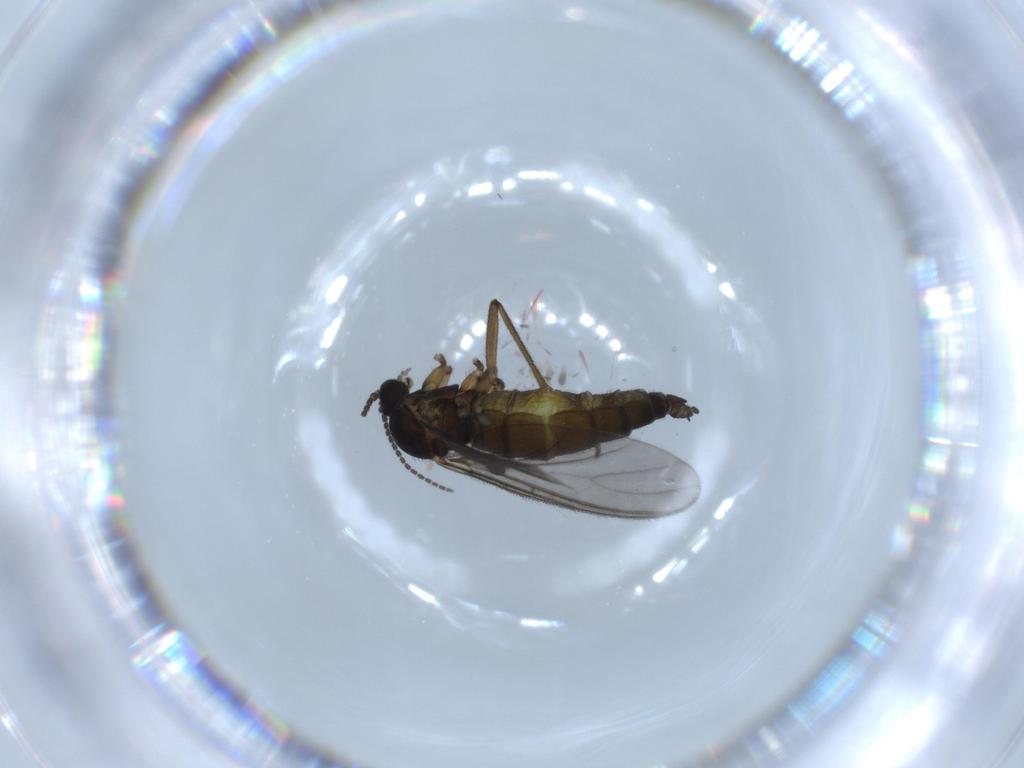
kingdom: Animalia
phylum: Arthropoda
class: Insecta
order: Diptera
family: Sciaridae
